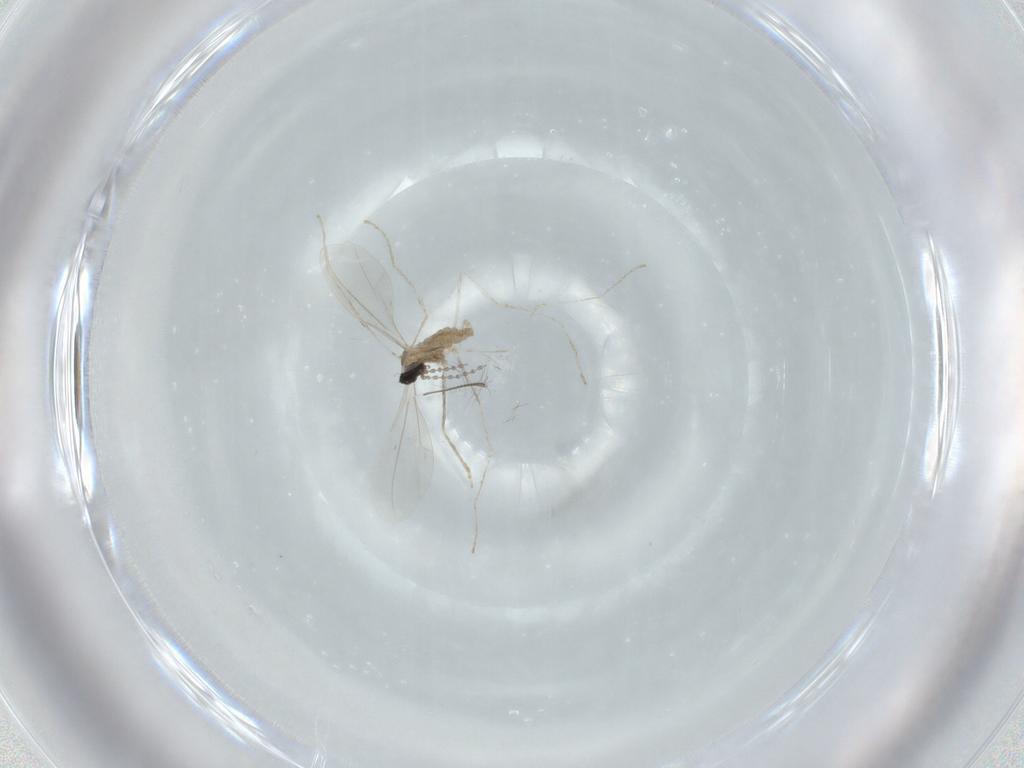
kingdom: Animalia
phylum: Arthropoda
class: Insecta
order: Diptera
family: Cecidomyiidae
